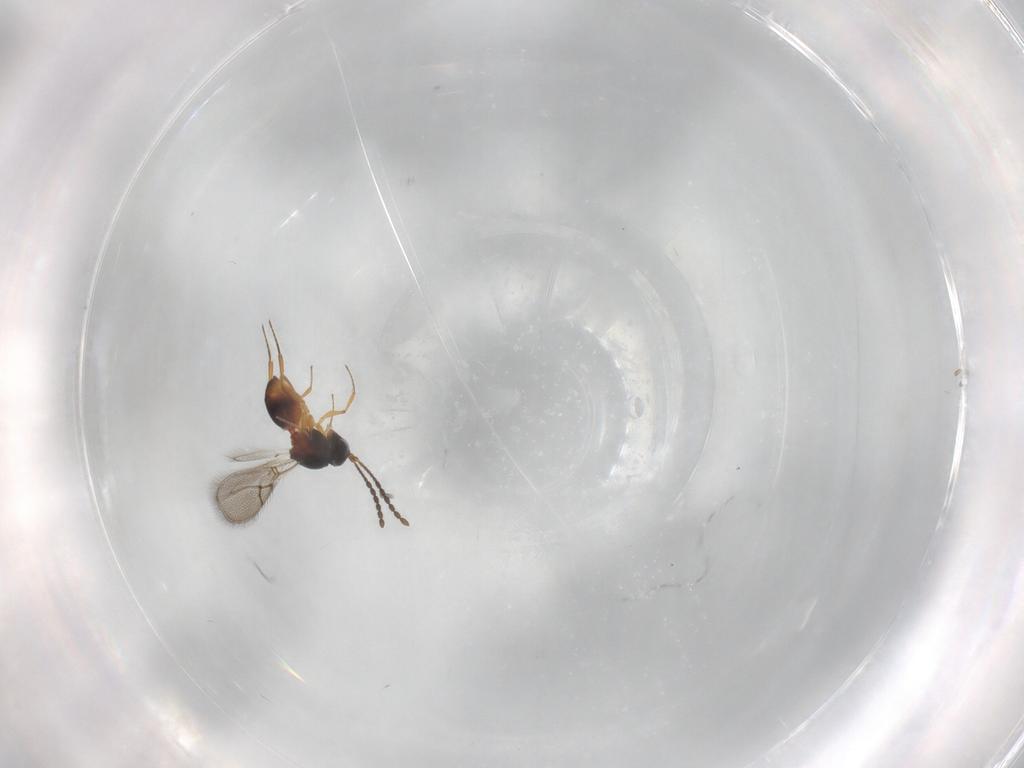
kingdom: Animalia
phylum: Arthropoda
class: Insecta
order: Hymenoptera
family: Figitidae
